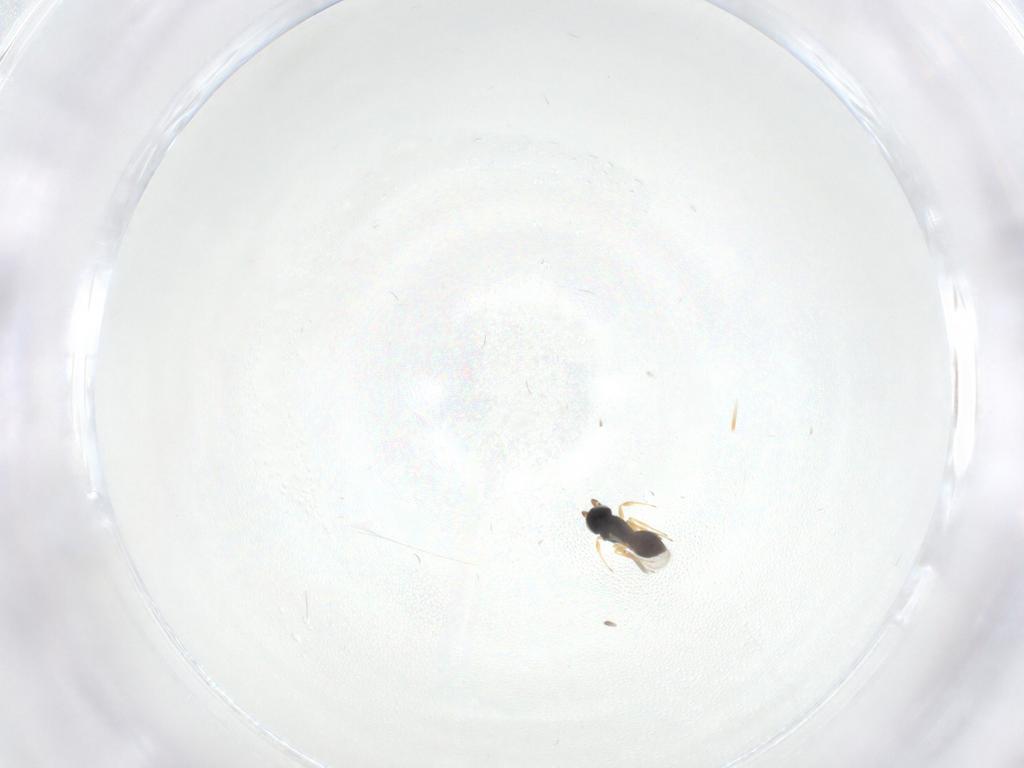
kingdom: Animalia
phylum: Arthropoda
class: Insecta
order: Hymenoptera
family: Scelionidae
